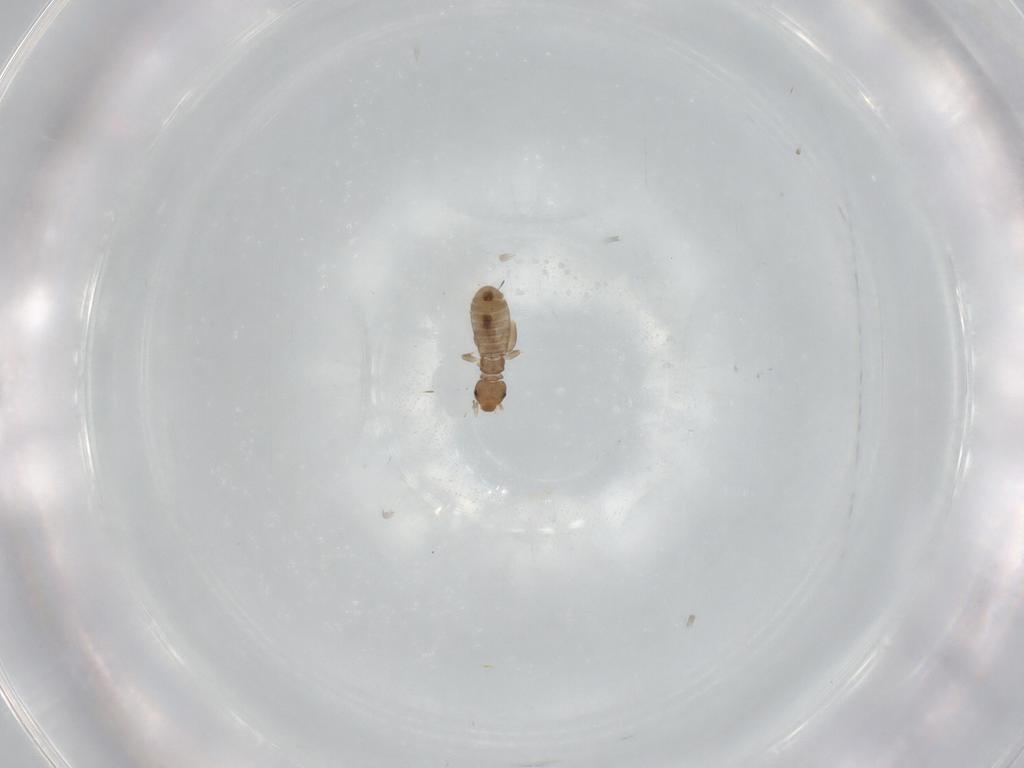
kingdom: Animalia
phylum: Arthropoda
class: Insecta
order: Psocodea
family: Liposcelididae
